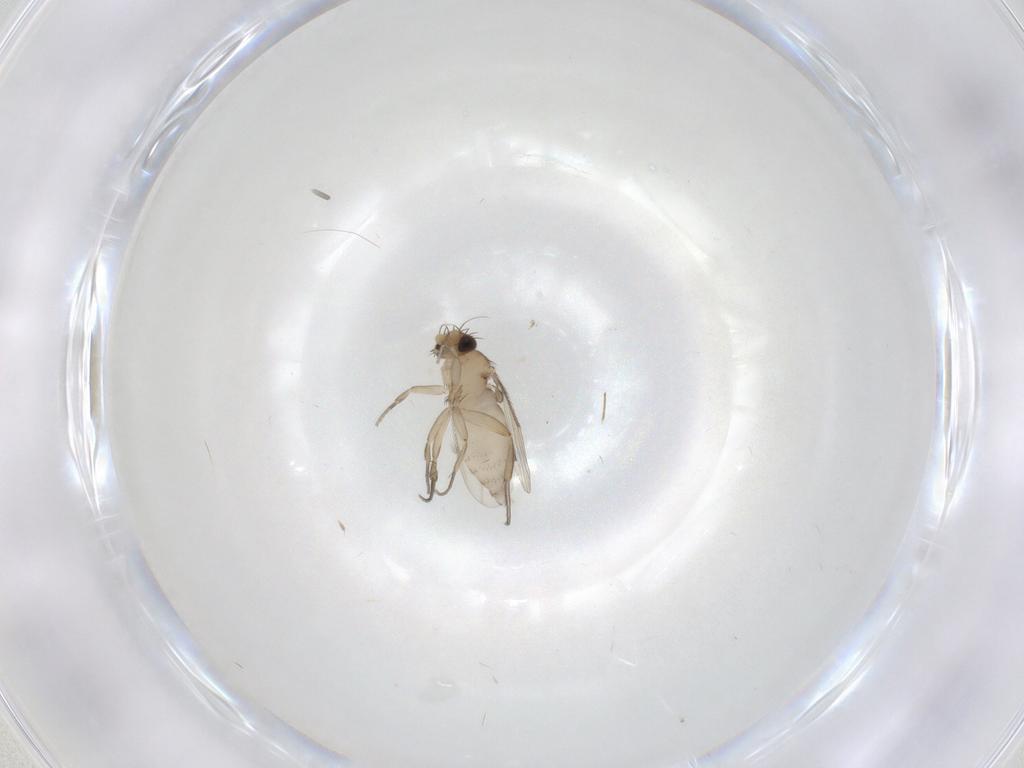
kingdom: Animalia
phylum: Arthropoda
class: Insecta
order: Diptera
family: Phoridae
